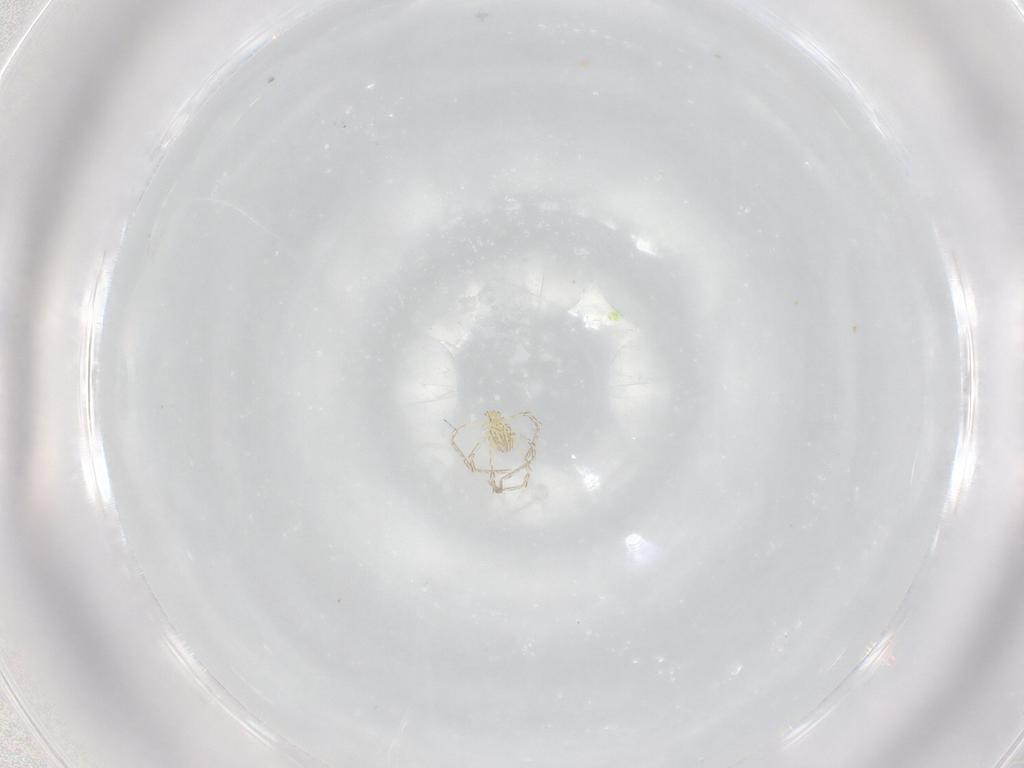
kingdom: Animalia
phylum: Arthropoda
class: Arachnida
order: Trombidiformes
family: Erythraeidae
